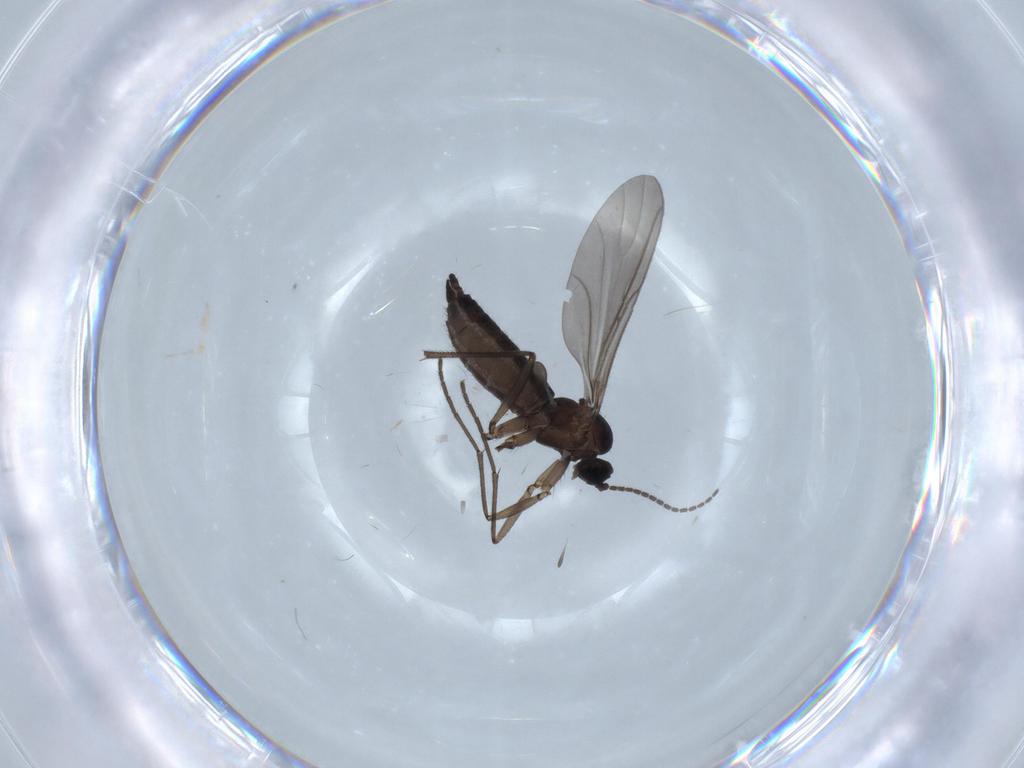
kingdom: Animalia
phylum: Arthropoda
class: Insecta
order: Diptera
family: Sciaridae
